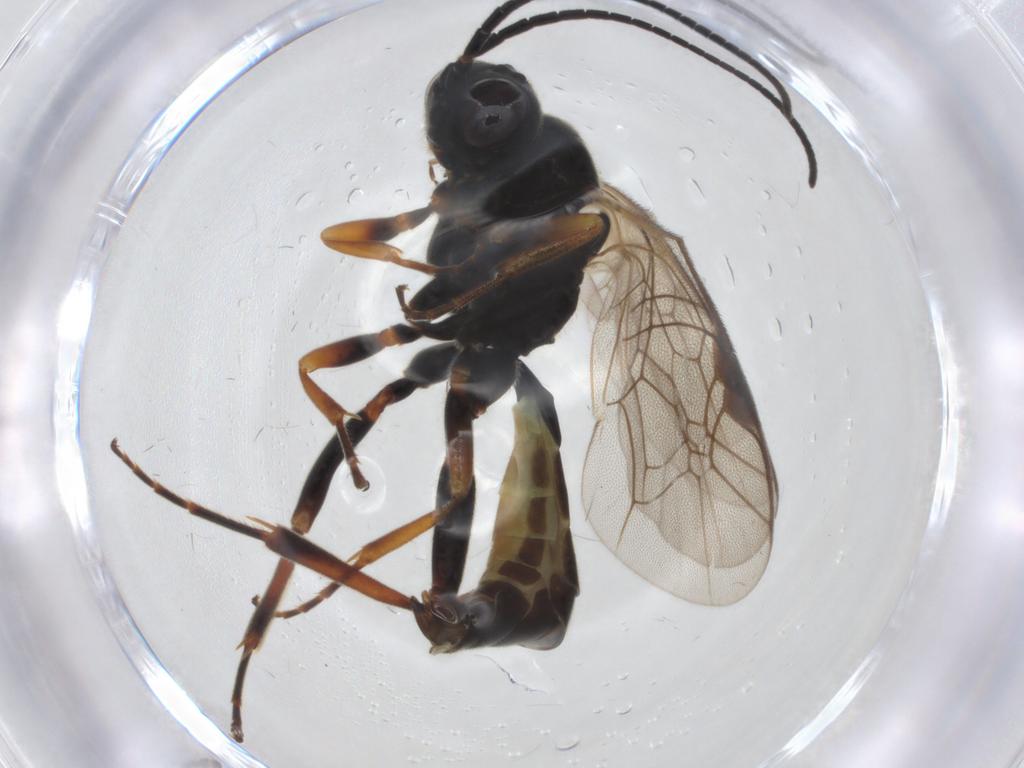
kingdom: Animalia
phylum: Arthropoda
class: Insecta
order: Hymenoptera
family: Ichneumonidae
